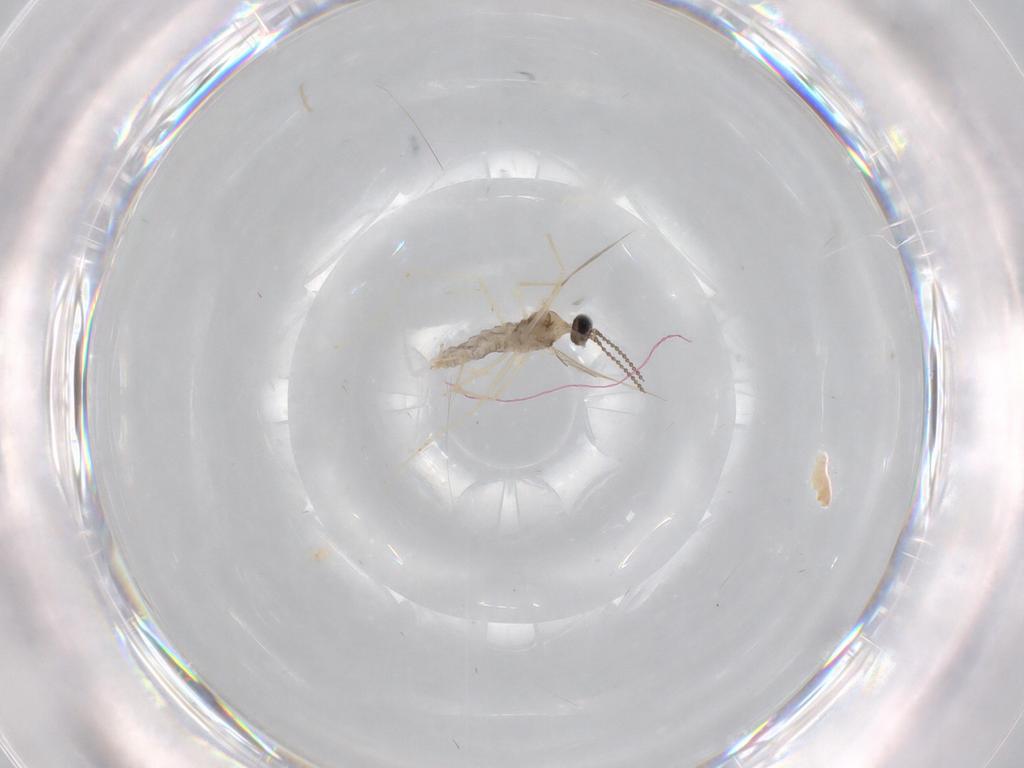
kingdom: Animalia
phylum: Arthropoda
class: Insecta
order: Diptera
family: Cecidomyiidae
